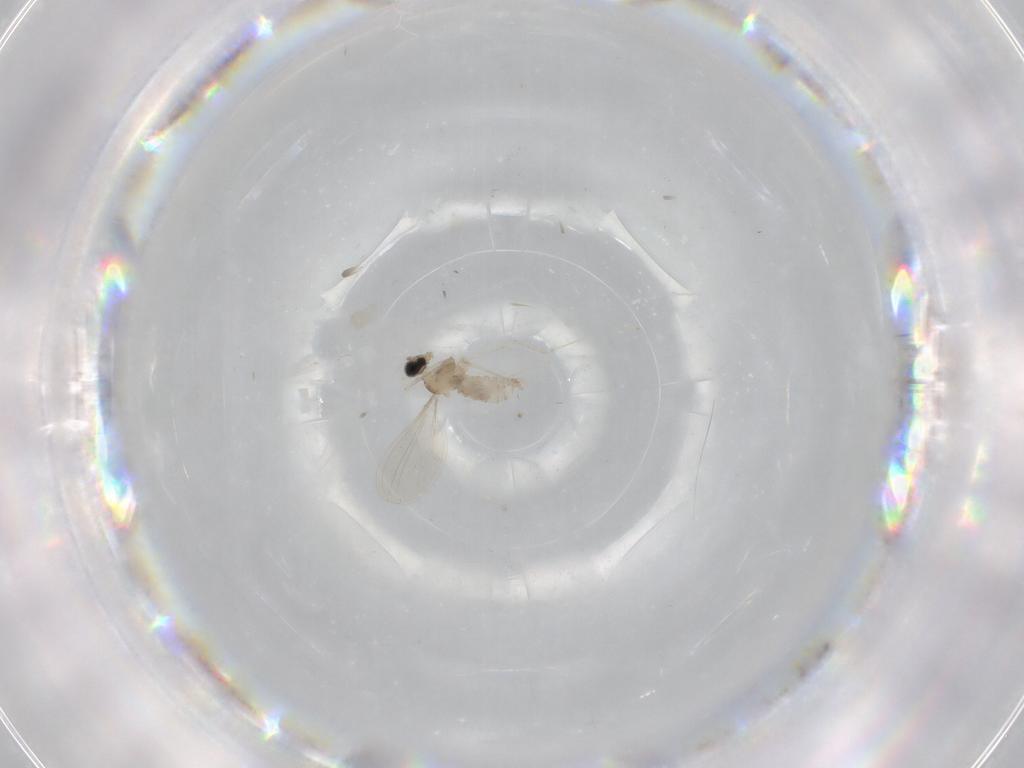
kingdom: Animalia
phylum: Arthropoda
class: Insecta
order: Diptera
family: Cecidomyiidae
